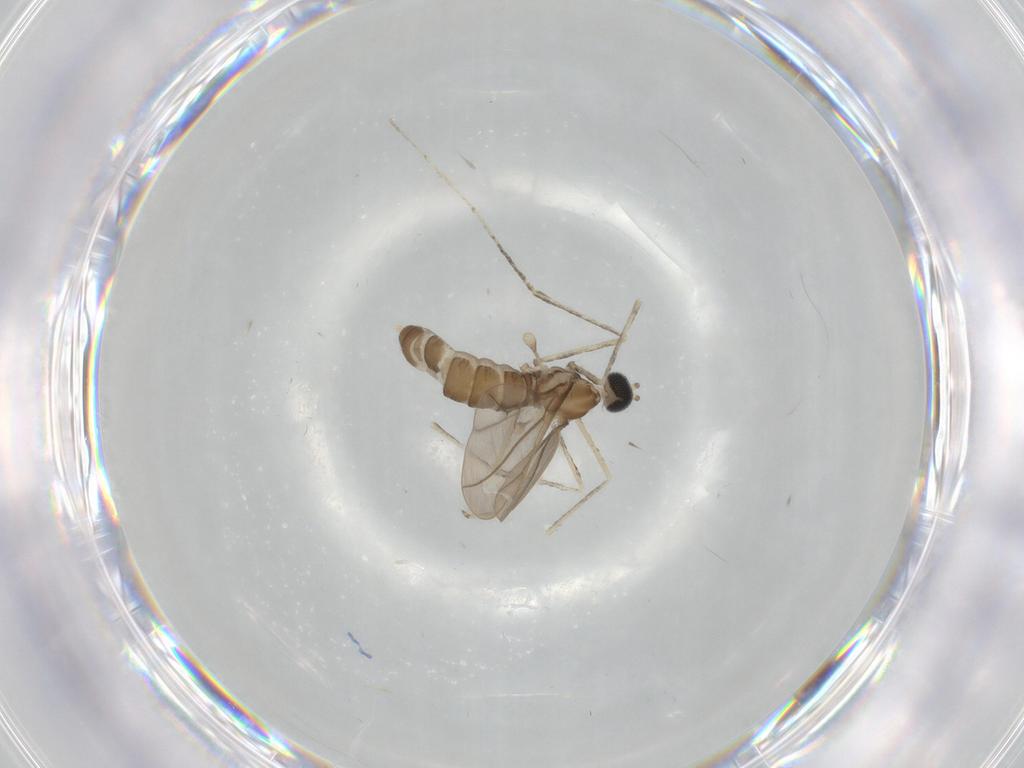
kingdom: Animalia
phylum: Arthropoda
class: Insecta
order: Diptera
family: Cecidomyiidae
